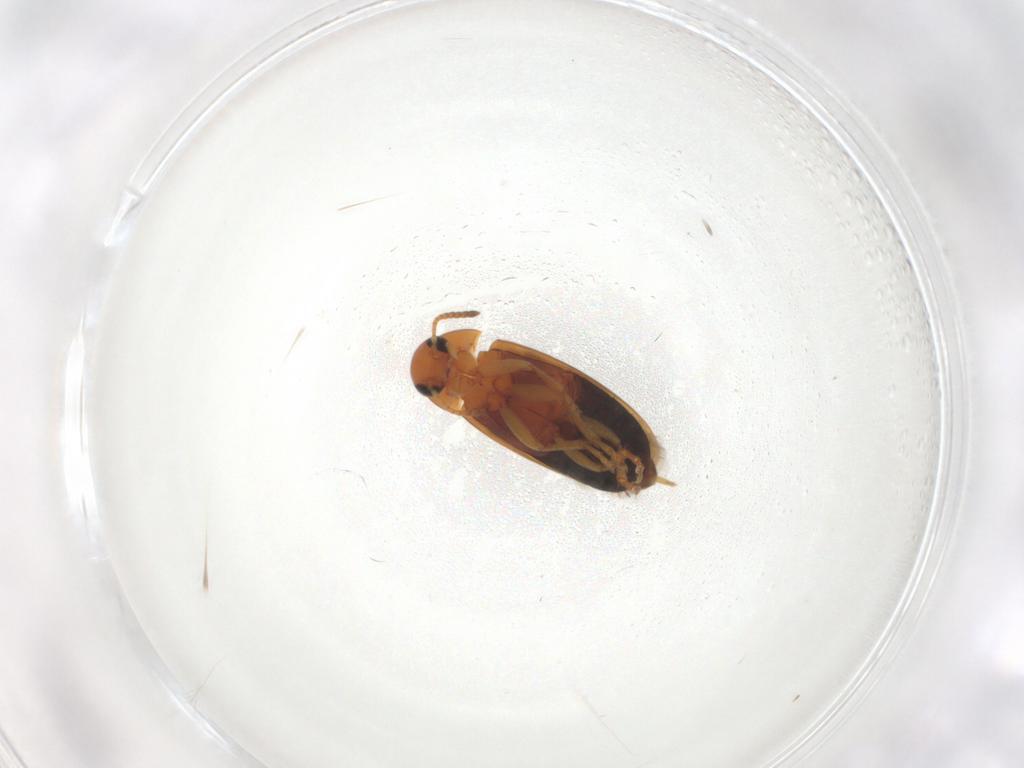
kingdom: Animalia
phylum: Arthropoda
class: Insecta
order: Coleoptera
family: Scraptiidae
